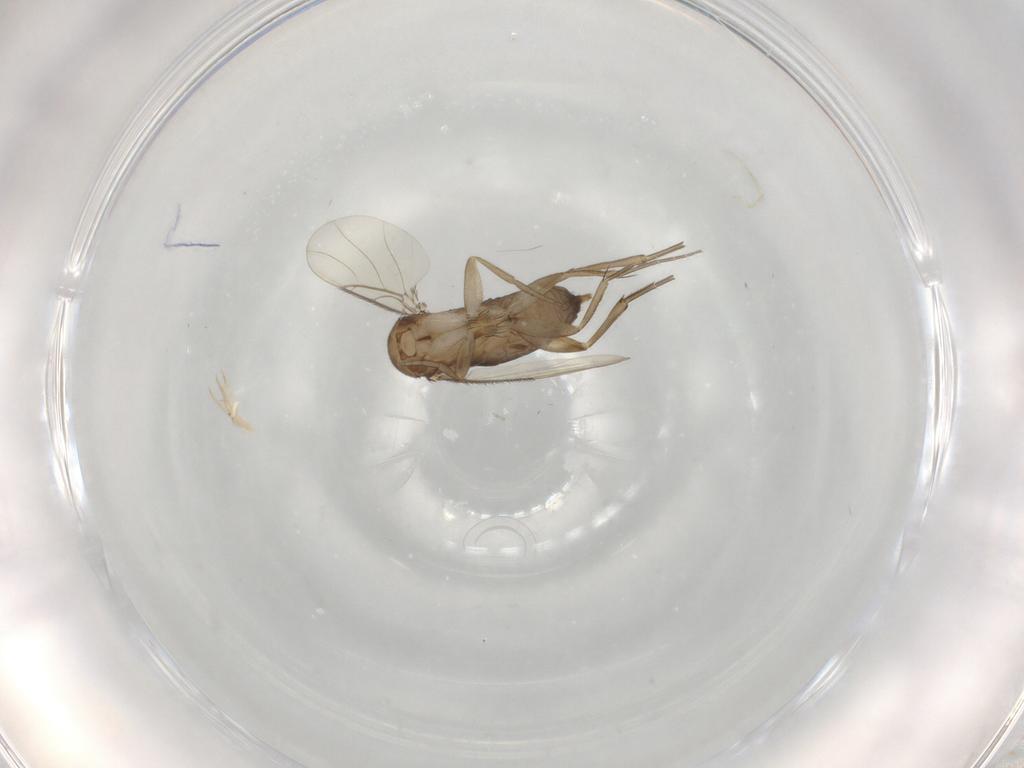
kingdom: Animalia
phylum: Arthropoda
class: Insecta
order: Diptera
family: Phoridae
